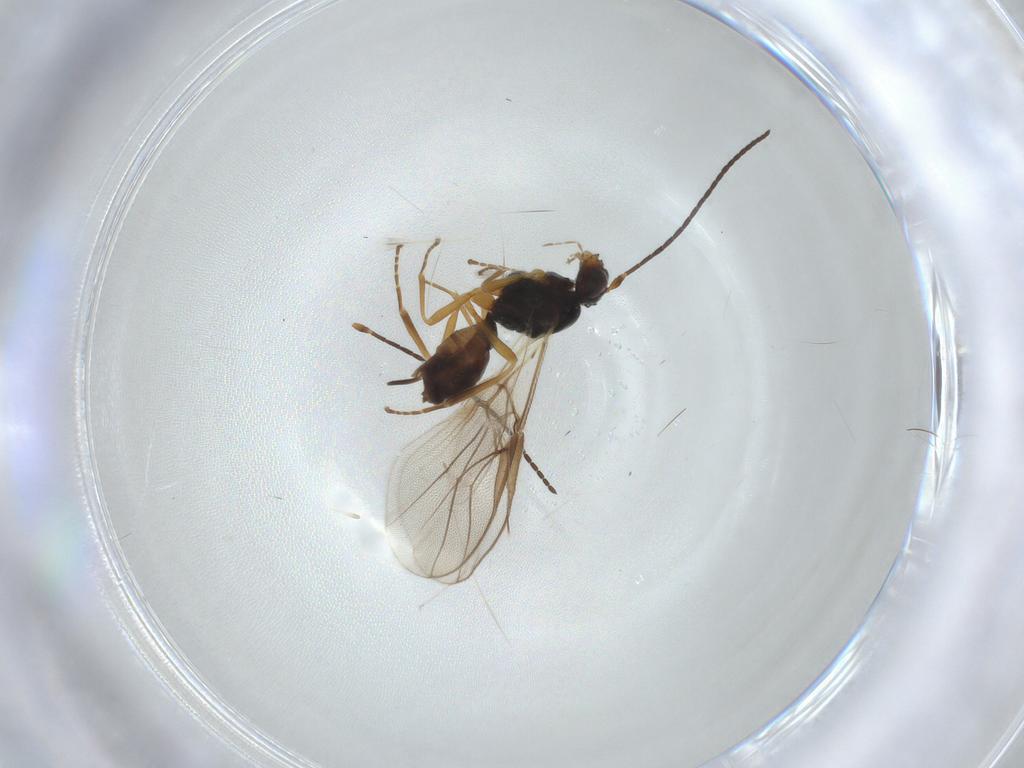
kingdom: Animalia
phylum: Arthropoda
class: Insecta
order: Hymenoptera
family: Braconidae
